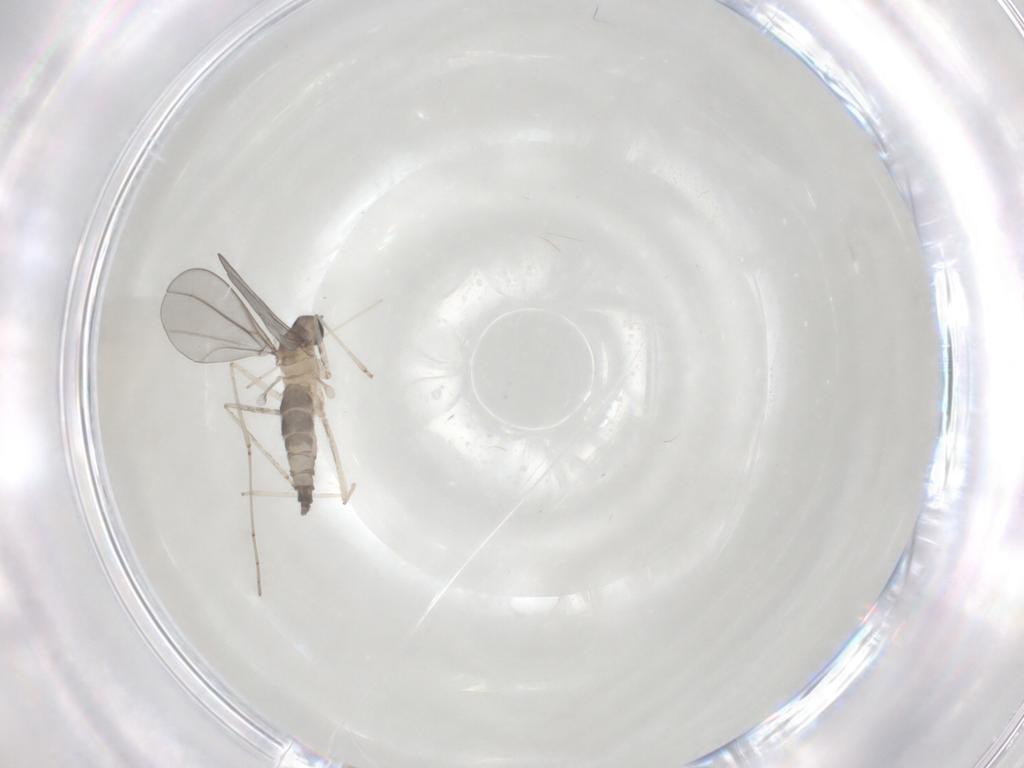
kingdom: Animalia
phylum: Arthropoda
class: Insecta
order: Diptera
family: Cecidomyiidae
